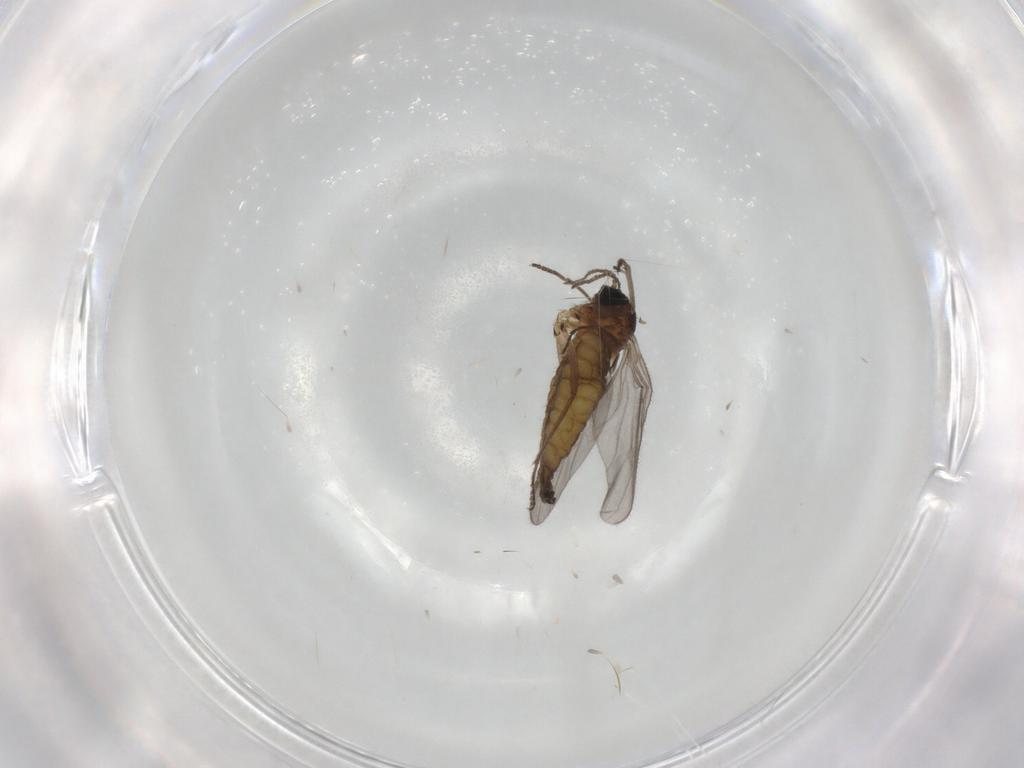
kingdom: Animalia
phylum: Arthropoda
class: Insecta
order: Diptera
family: Sciaridae
